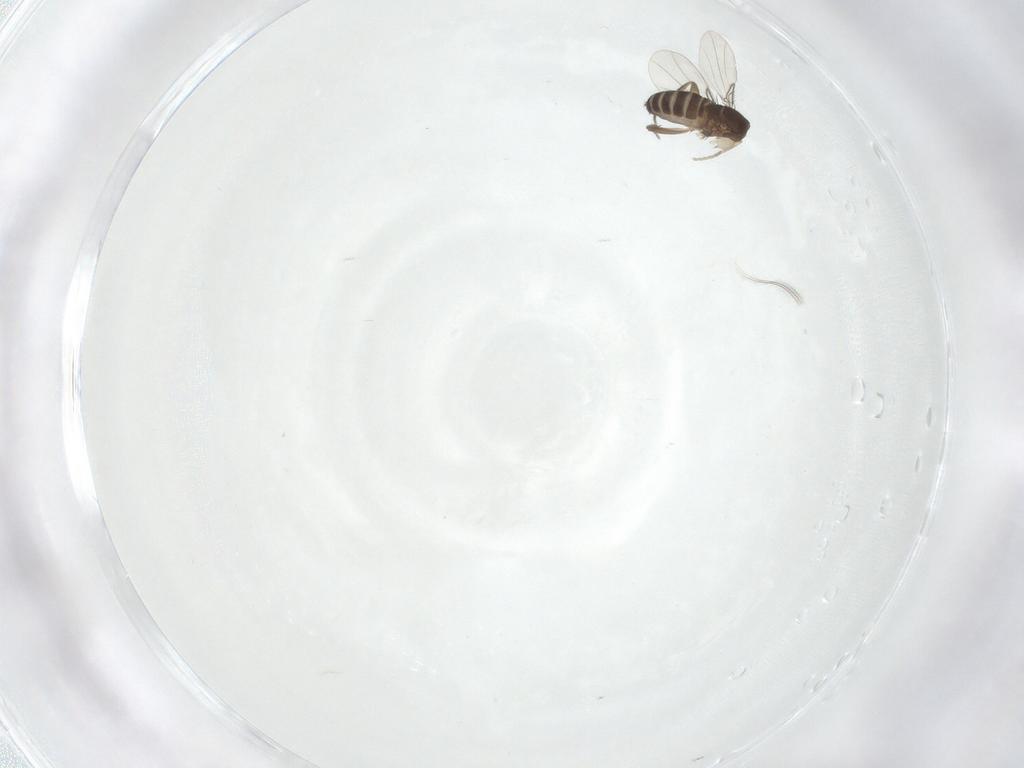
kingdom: Animalia
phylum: Arthropoda
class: Insecta
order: Diptera
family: Phoridae
